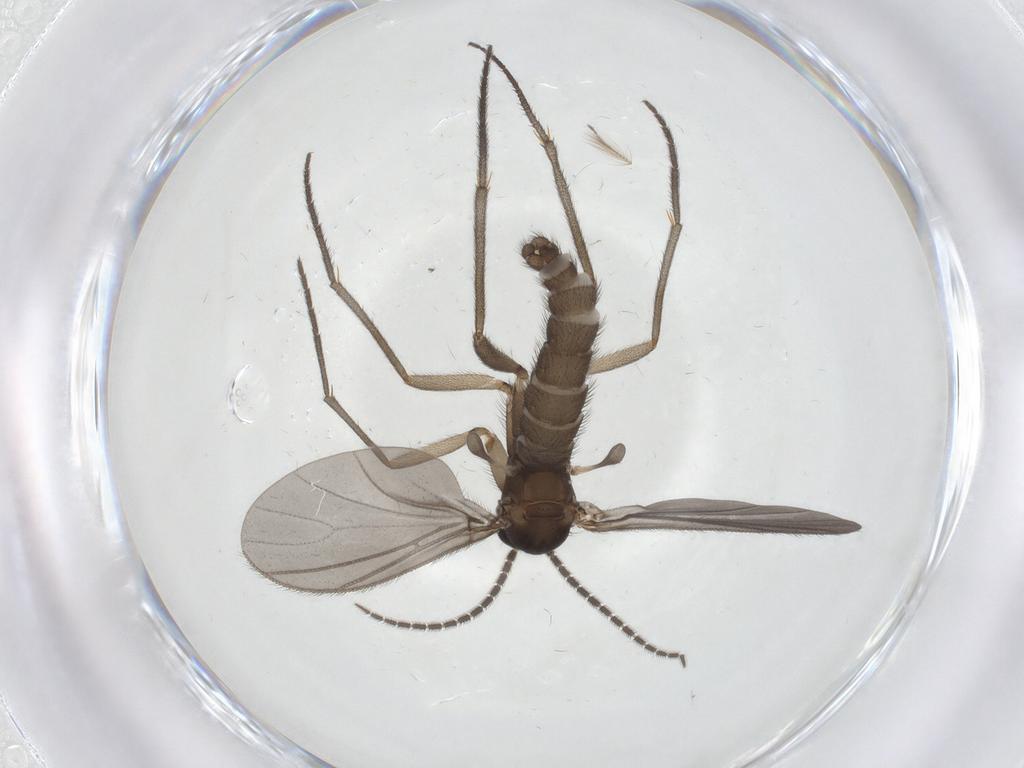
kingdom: Animalia
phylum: Arthropoda
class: Insecta
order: Diptera
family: Sciaridae
